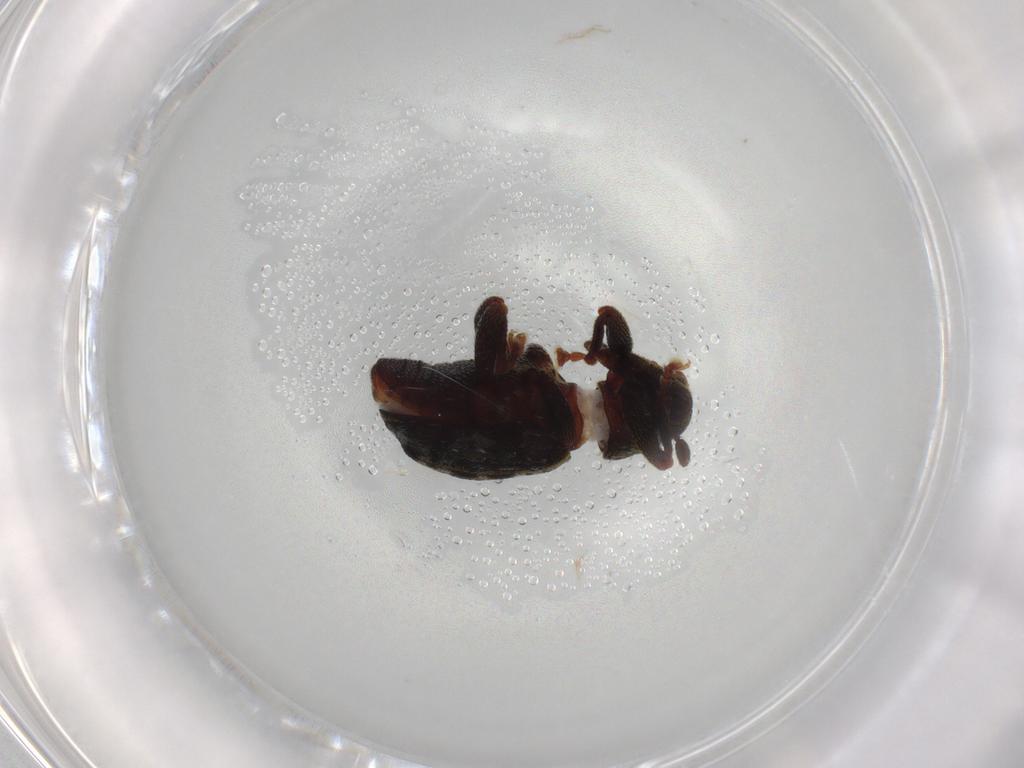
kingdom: Animalia
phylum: Arthropoda
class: Insecta
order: Coleoptera
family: Curculionidae
